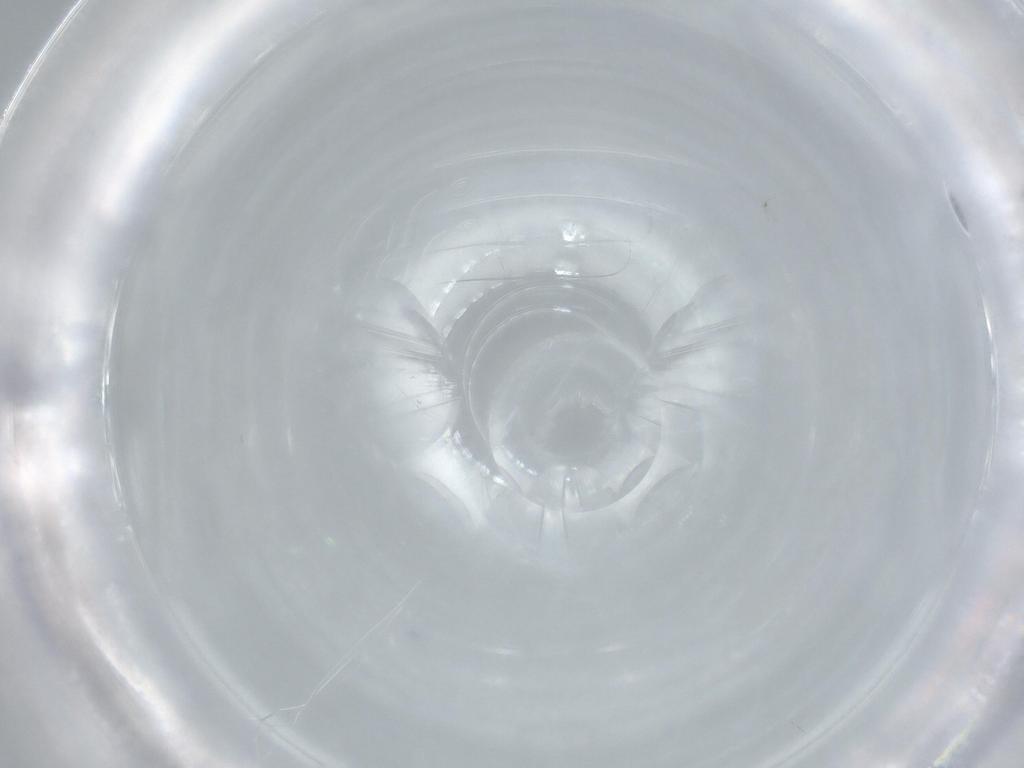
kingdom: Animalia
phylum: Arthropoda
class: Insecta
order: Diptera
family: Chironomidae
